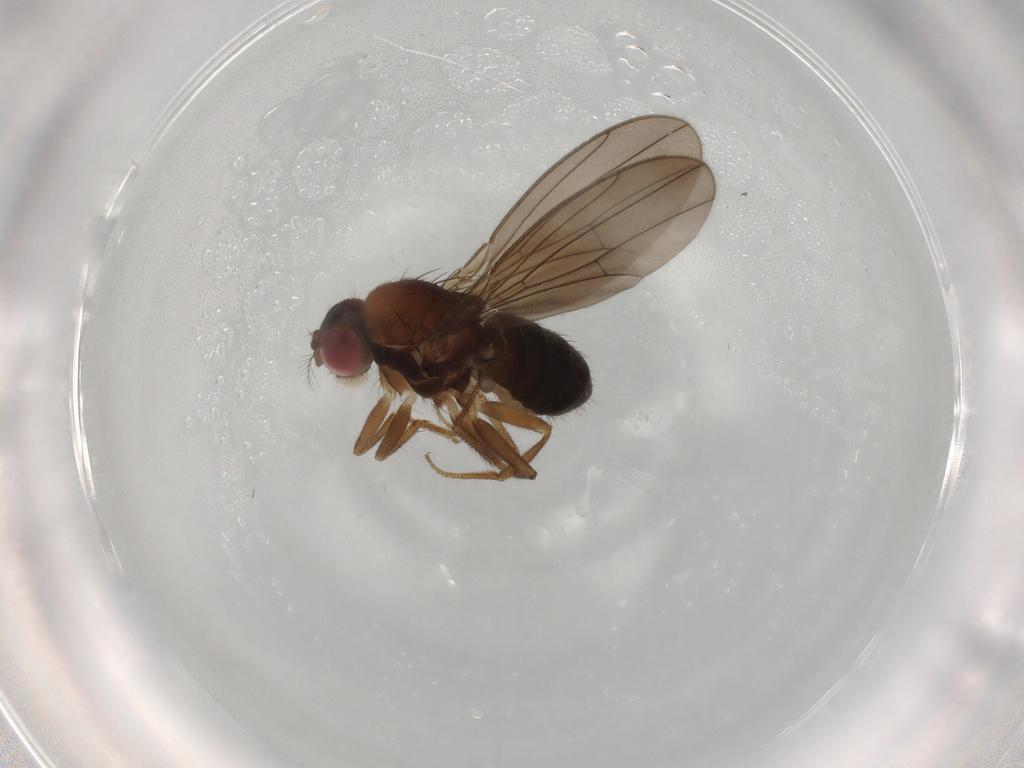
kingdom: Animalia
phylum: Arthropoda
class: Insecta
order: Diptera
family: Drosophilidae
